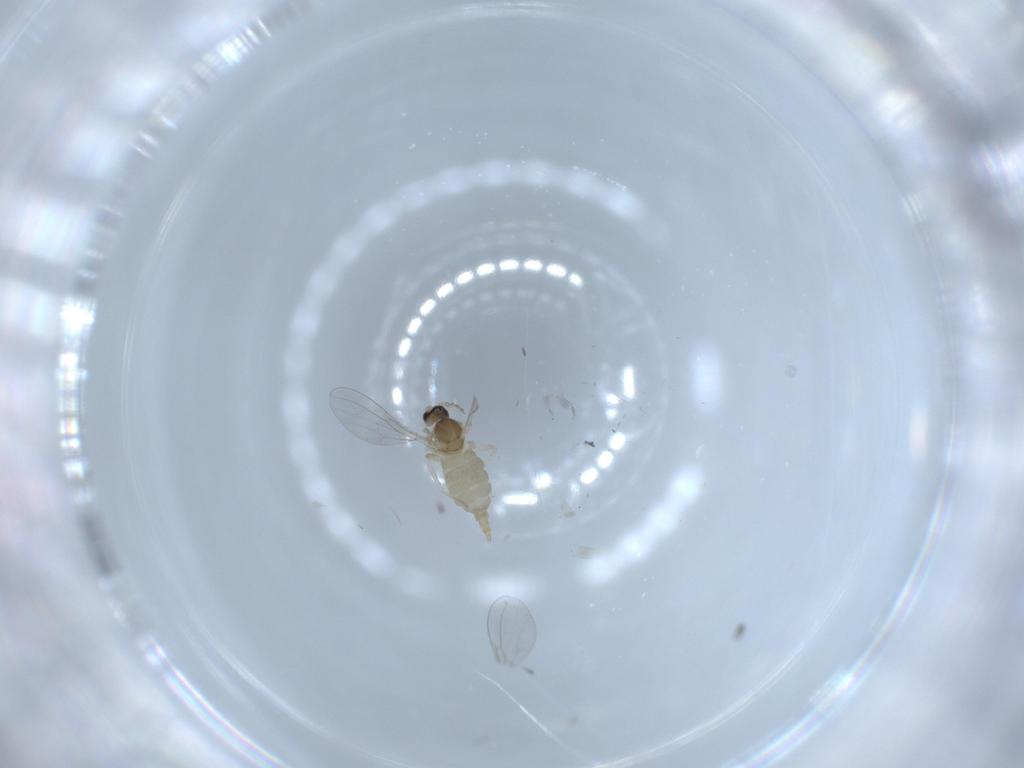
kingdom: Animalia
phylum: Arthropoda
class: Insecta
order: Diptera
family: Cecidomyiidae
